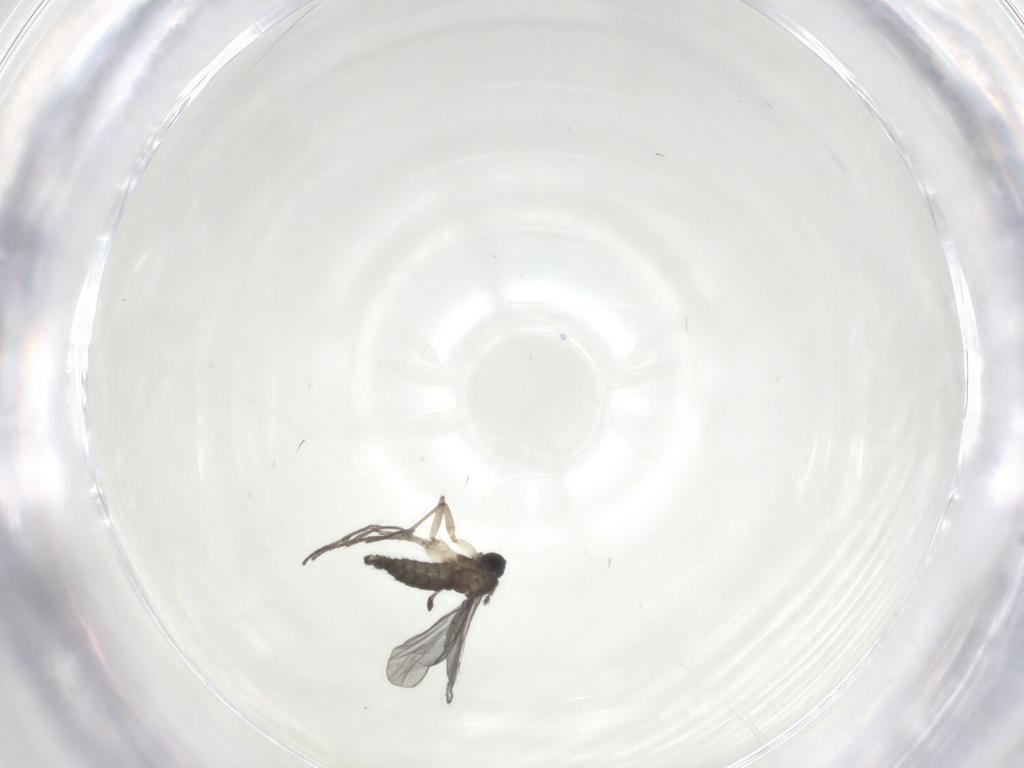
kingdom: Animalia
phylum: Arthropoda
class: Insecta
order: Diptera
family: Sciaridae
